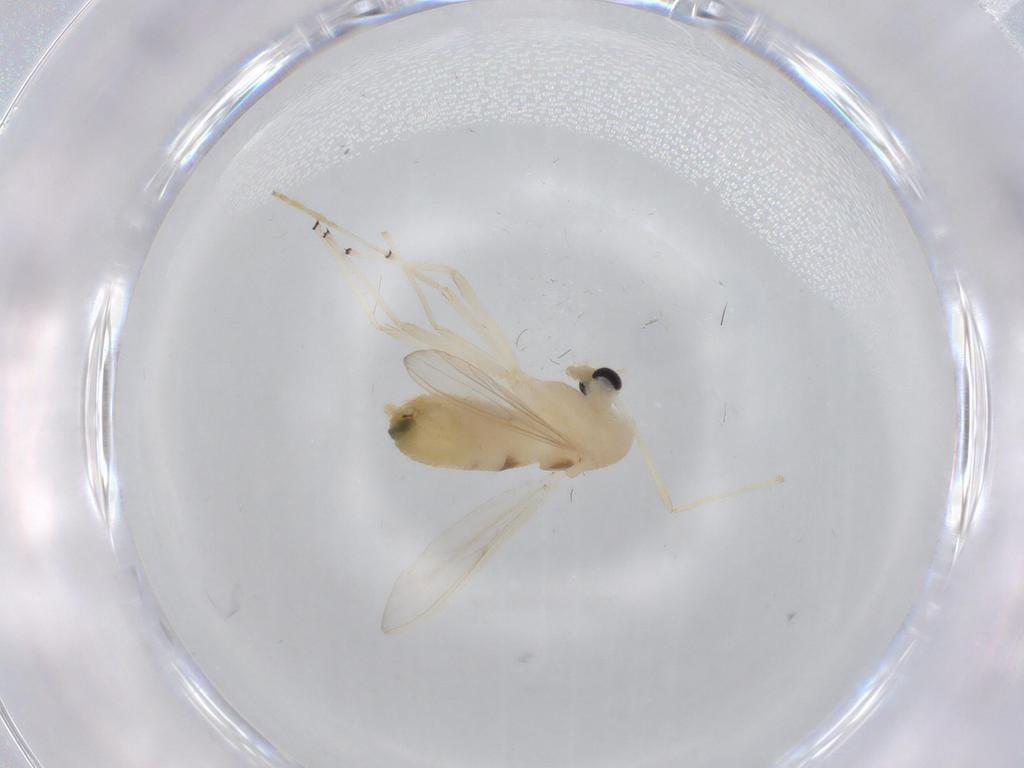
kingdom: Animalia
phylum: Arthropoda
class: Insecta
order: Diptera
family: Chironomidae
